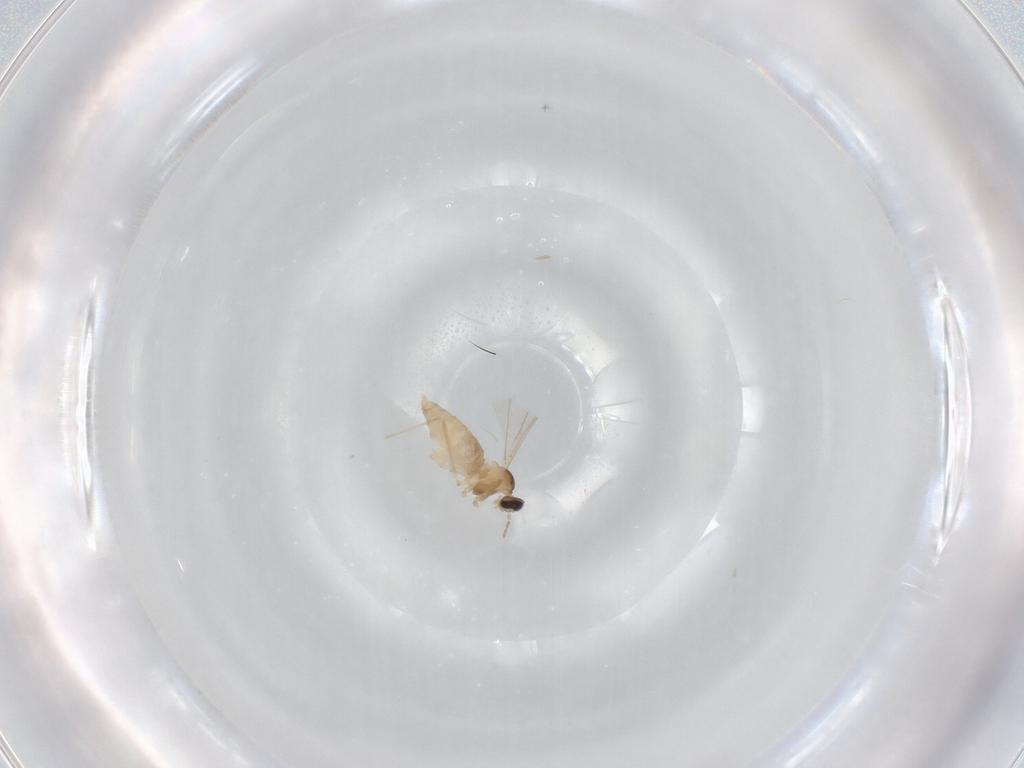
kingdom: Animalia
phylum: Arthropoda
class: Insecta
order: Diptera
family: Cecidomyiidae
